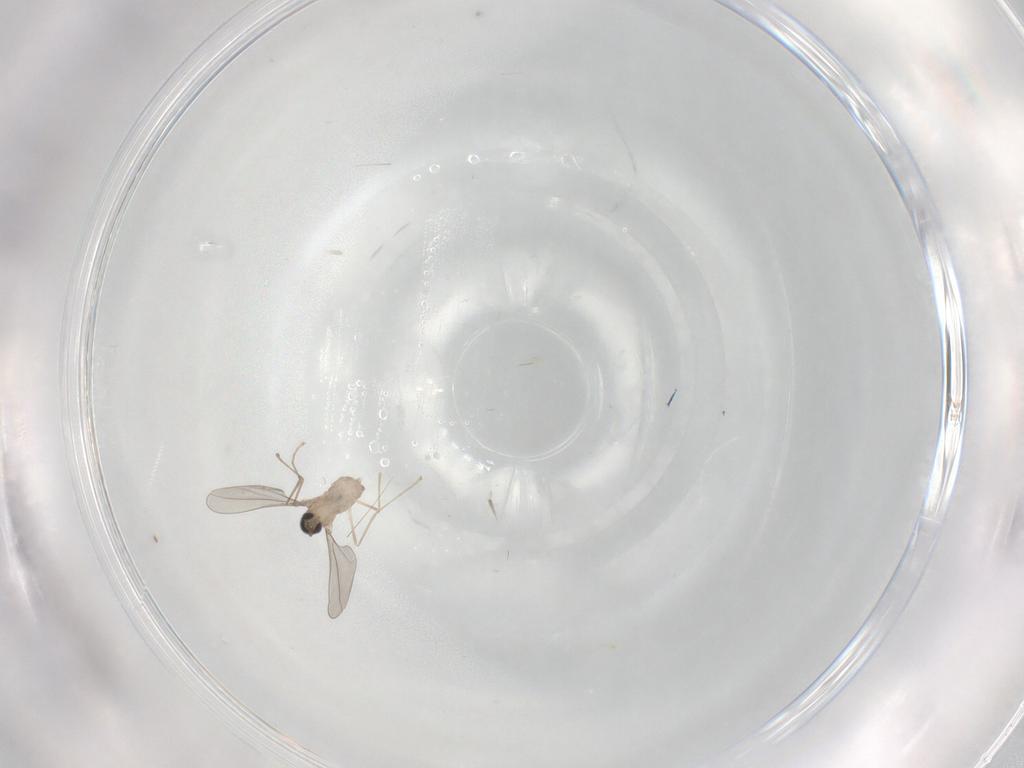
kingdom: Animalia
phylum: Arthropoda
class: Insecta
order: Diptera
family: Cecidomyiidae
